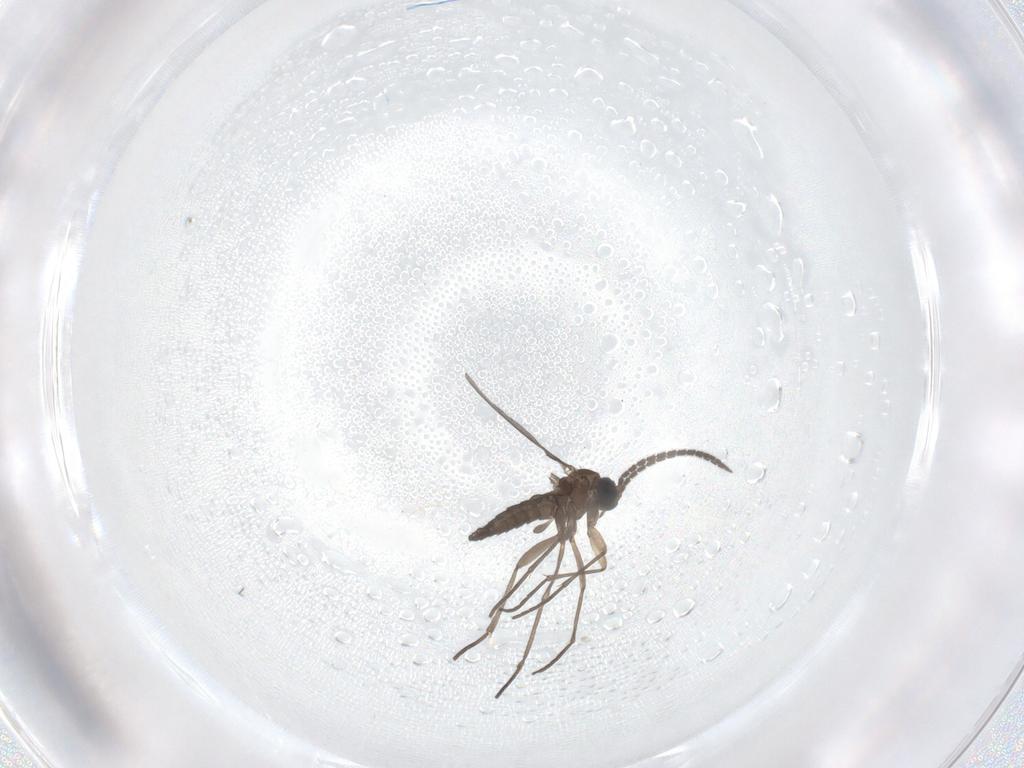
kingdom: Animalia
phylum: Arthropoda
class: Insecta
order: Diptera
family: Sciaridae
